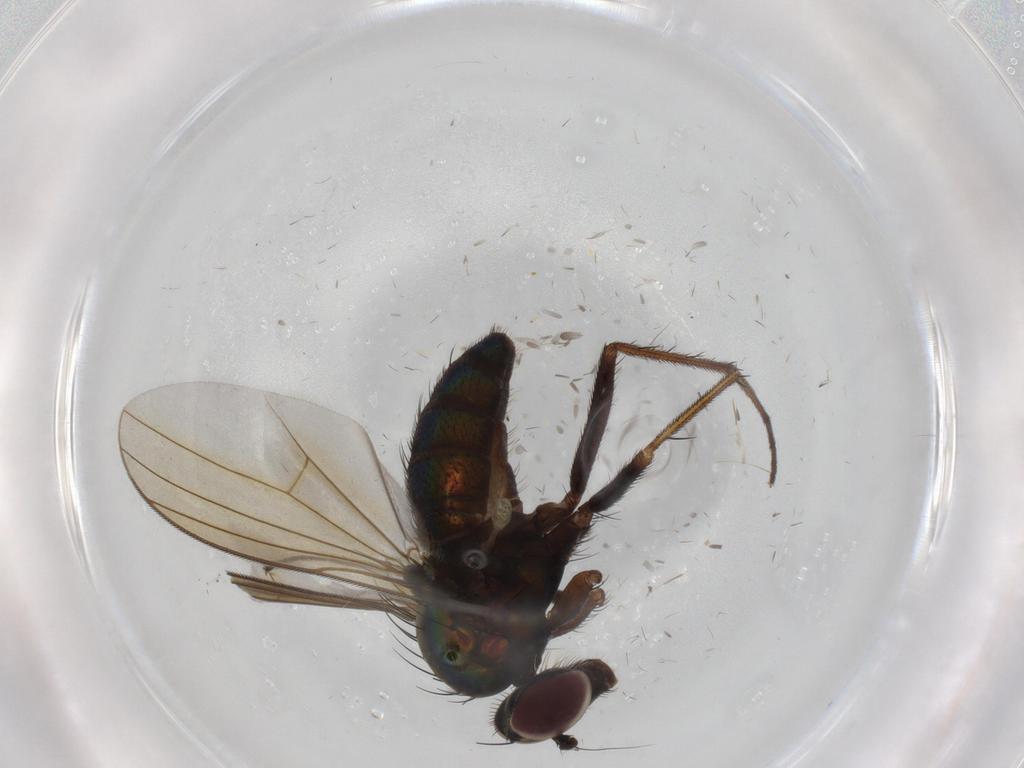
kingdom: Animalia
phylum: Arthropoda
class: Insecta
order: Diptera
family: Dolichopodidae
